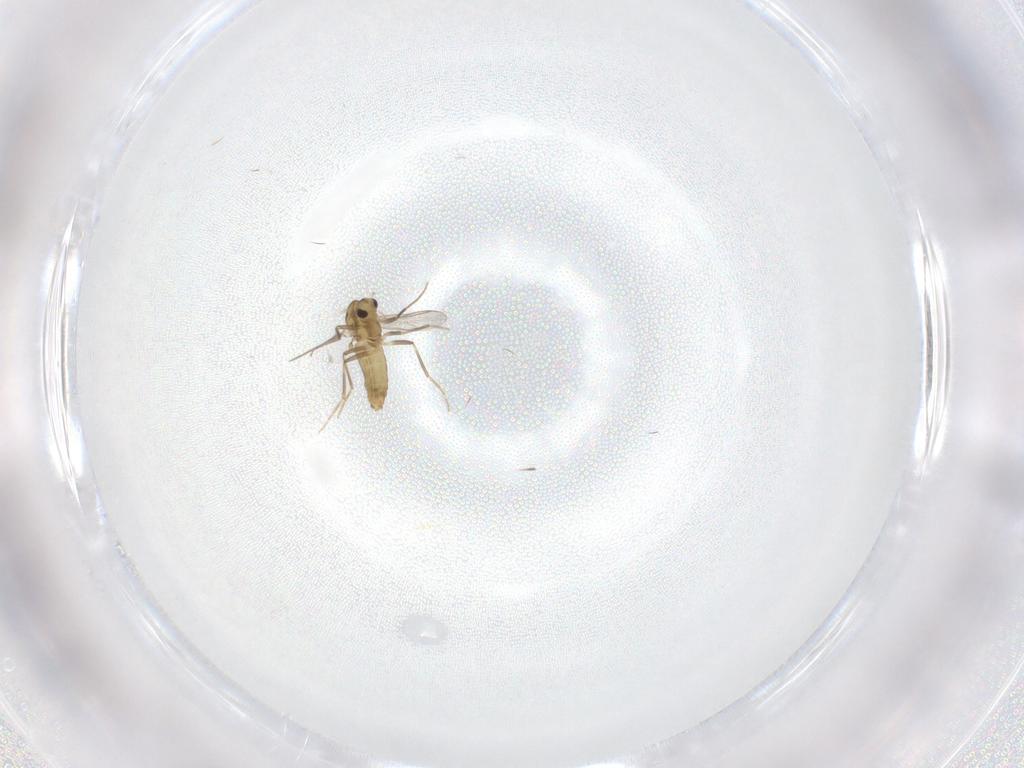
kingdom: Animalia
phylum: Arthropoda
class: Insecta
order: Diptera
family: Chironomidae
